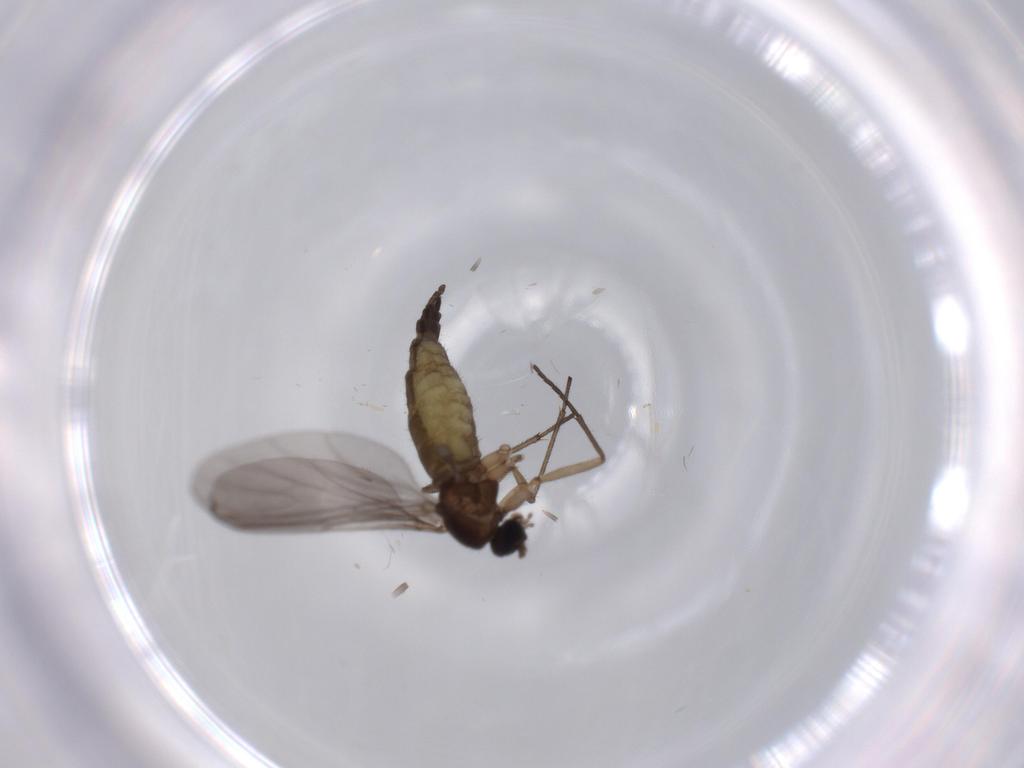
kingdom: Animalia
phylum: Arthropoda
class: Insecta
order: Diptera
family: Sciaridae
